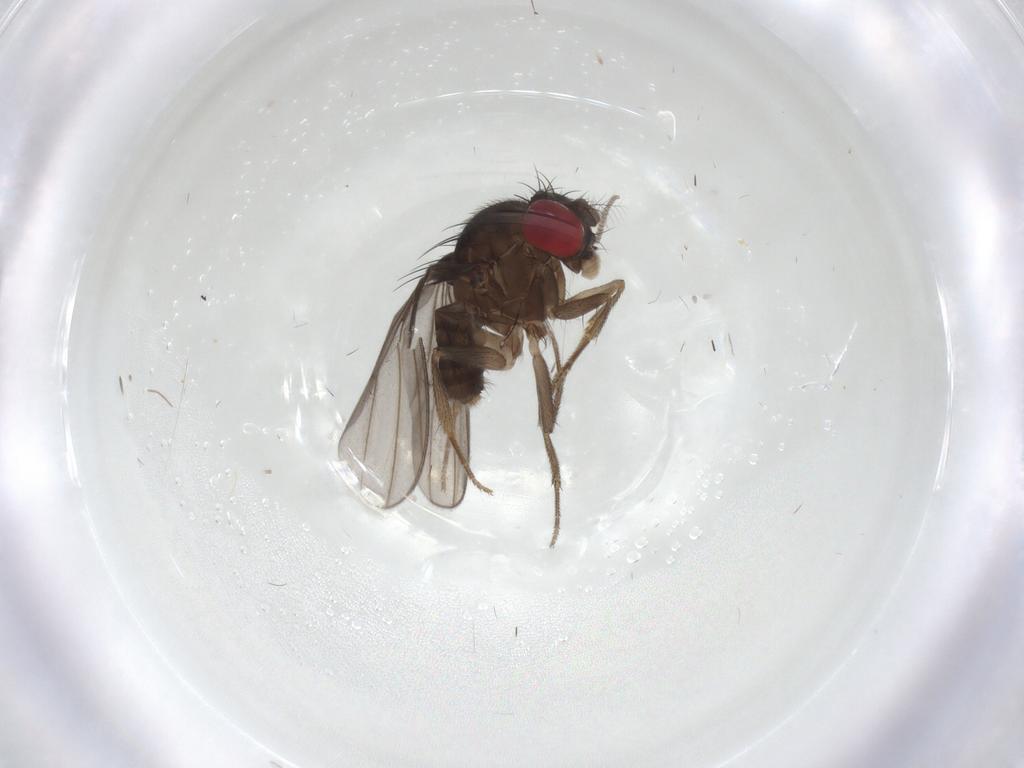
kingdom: Animalia
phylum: Arthropoda
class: Insecta
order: Diptera
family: Drosophilidae
